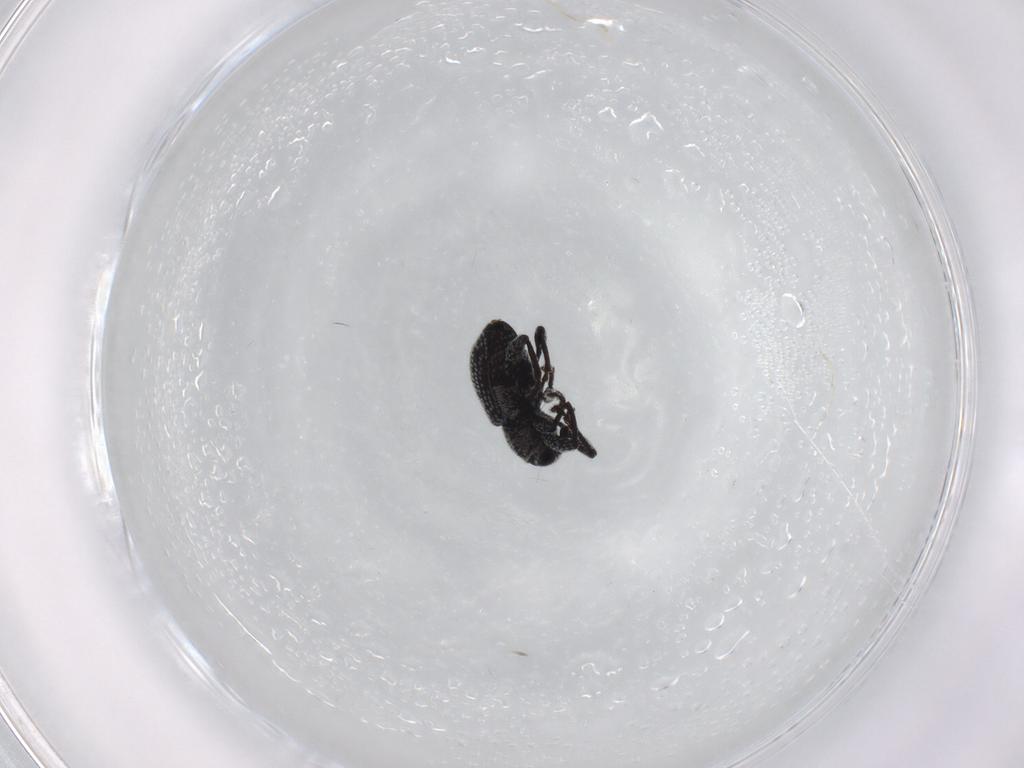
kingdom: Animalia
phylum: Arthropoda
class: Insecta
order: Coleoptera
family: Curculionidae
